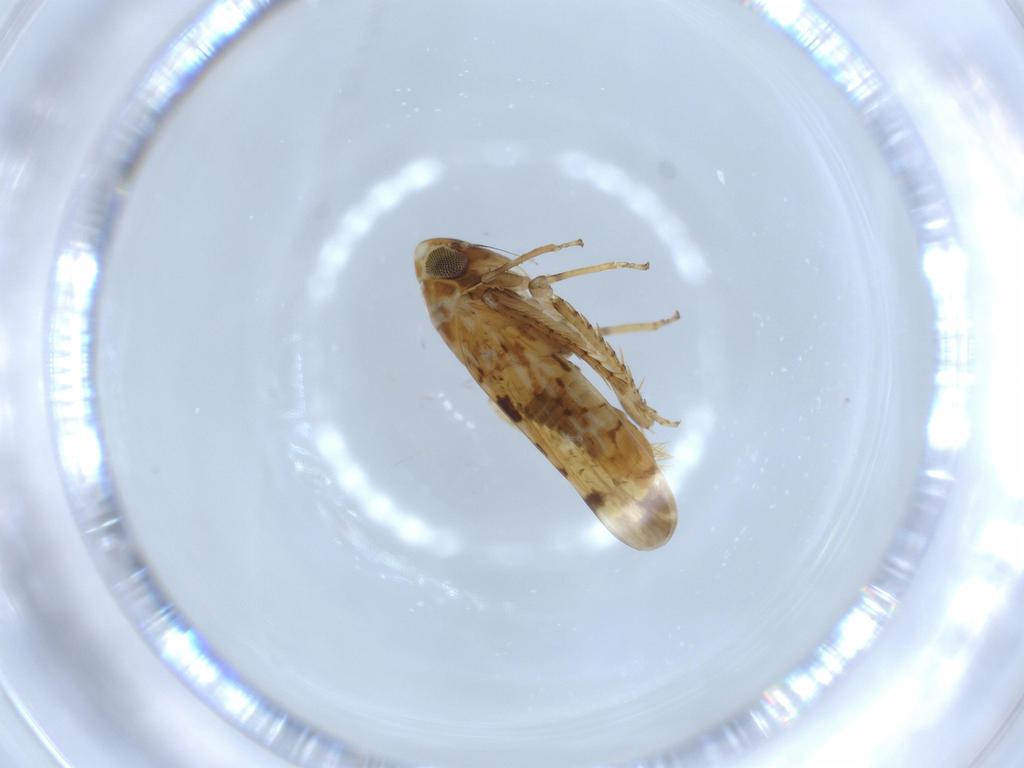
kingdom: Animalia
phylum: Arthropoda
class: Insecta
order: Hemiptera
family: Cicadellidae
